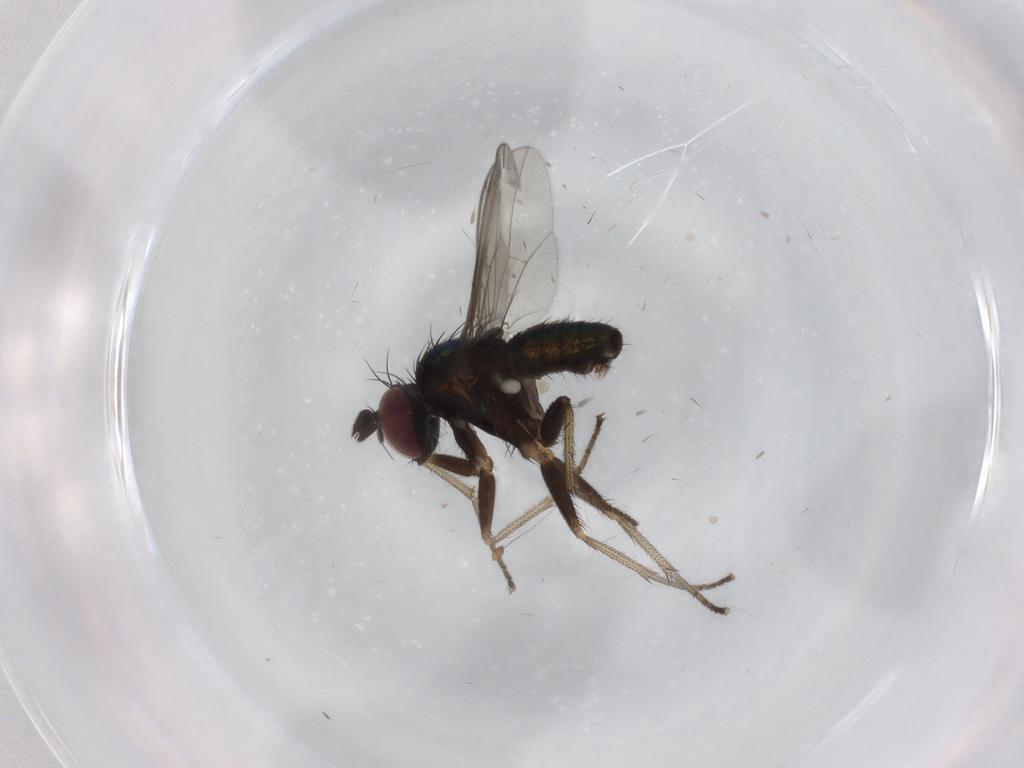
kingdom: Animalia
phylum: Arthropoda
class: Insecta
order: Diptera
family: Dolichopodidae
